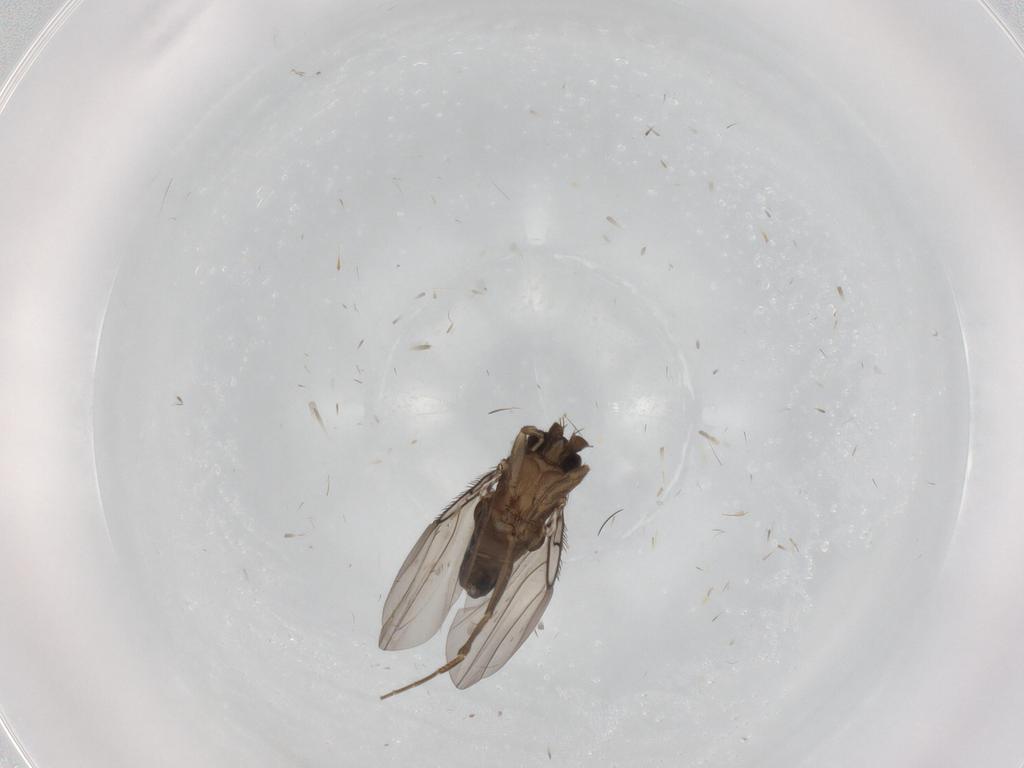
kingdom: Animalia
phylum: Arthropoda
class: Insecta
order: Diptera
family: Phoridae
